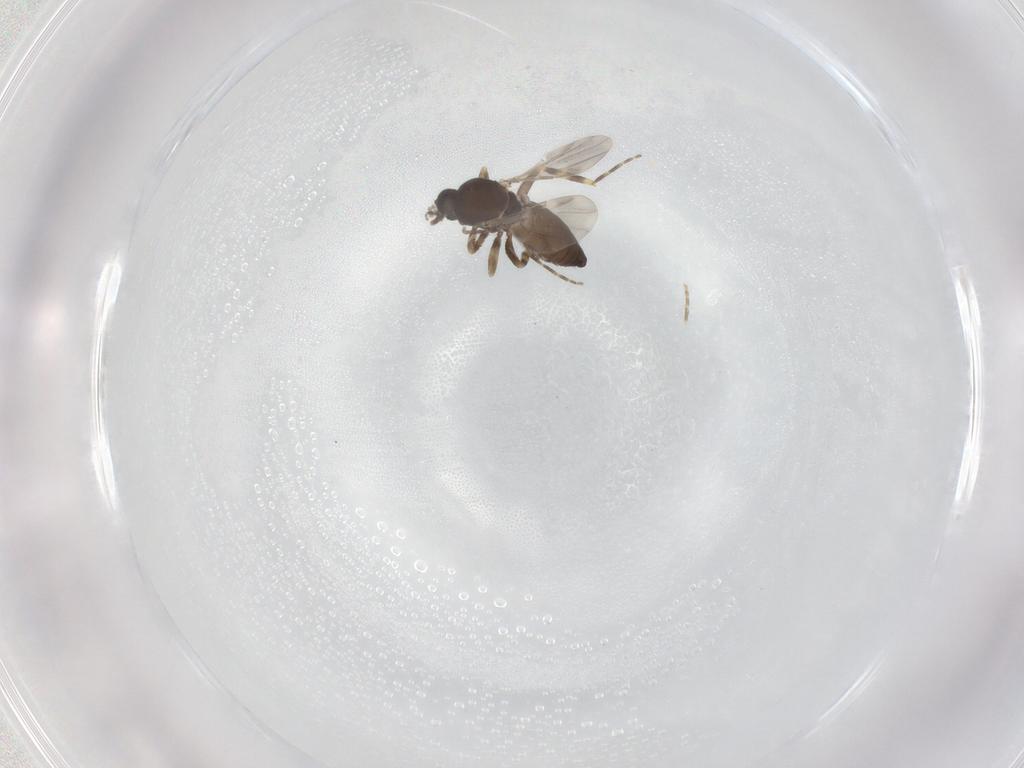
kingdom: Animalia
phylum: Arthropoda
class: Insecta
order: Diptera
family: Ceratopogonidae
